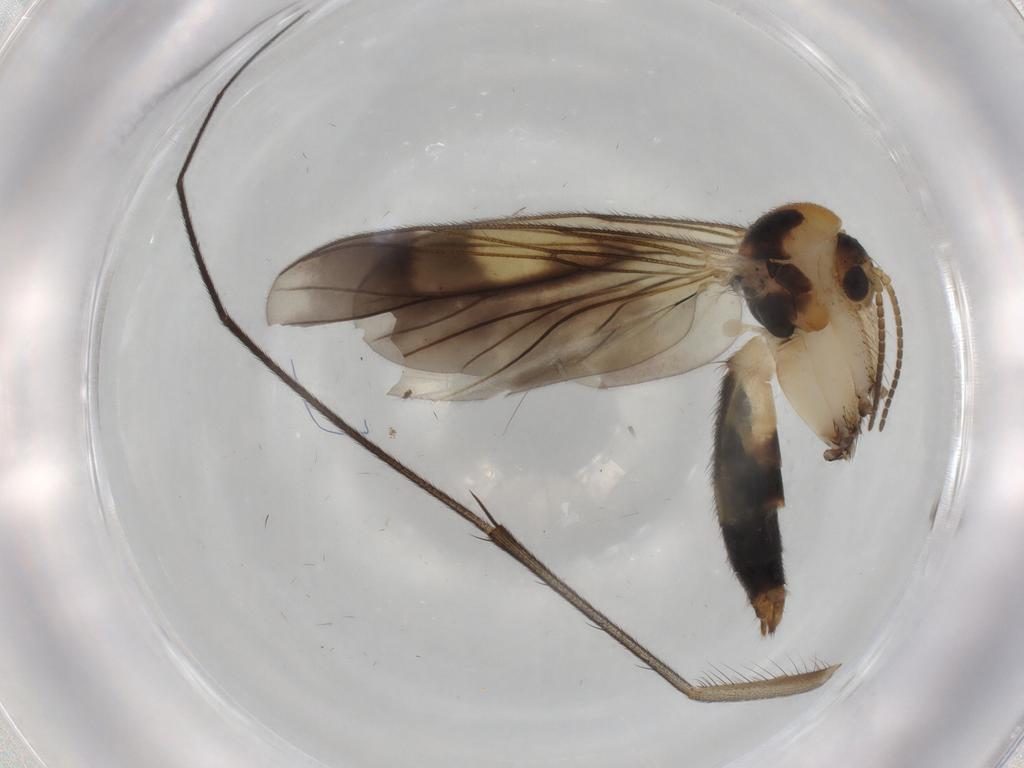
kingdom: Animalia
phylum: Arthropoda
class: Insecta
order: Diptera
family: Mycetophilidae
